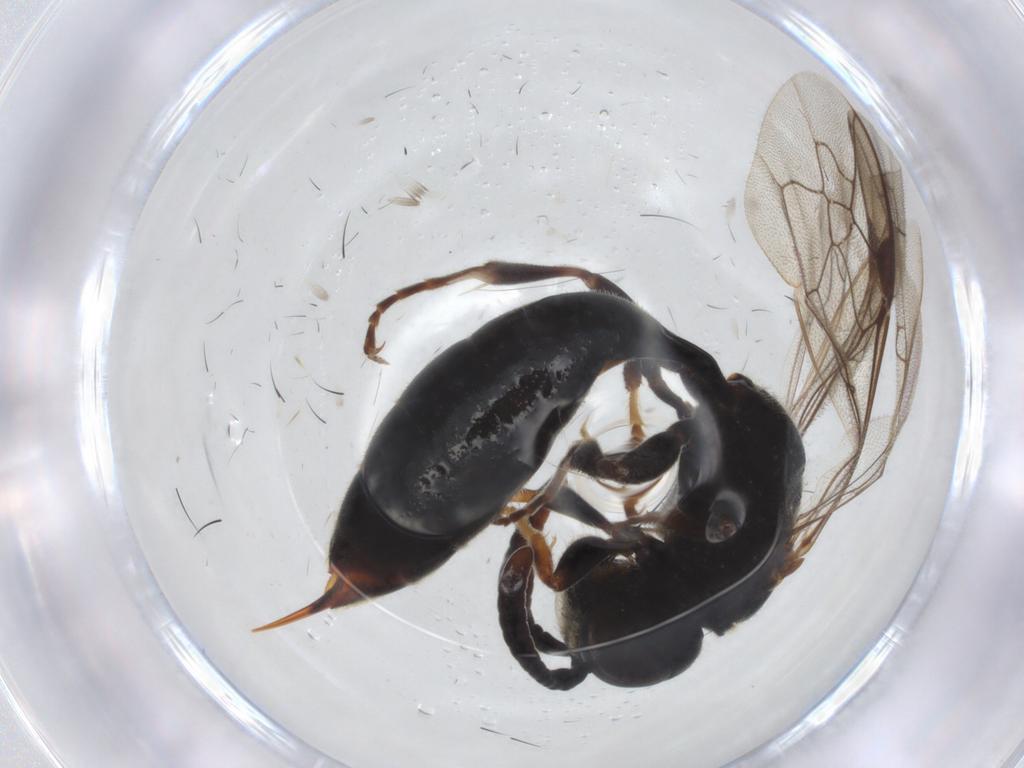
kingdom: Animalia
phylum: Arthropoda
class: Insecta
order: Hymenoptera
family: Crabronidae
